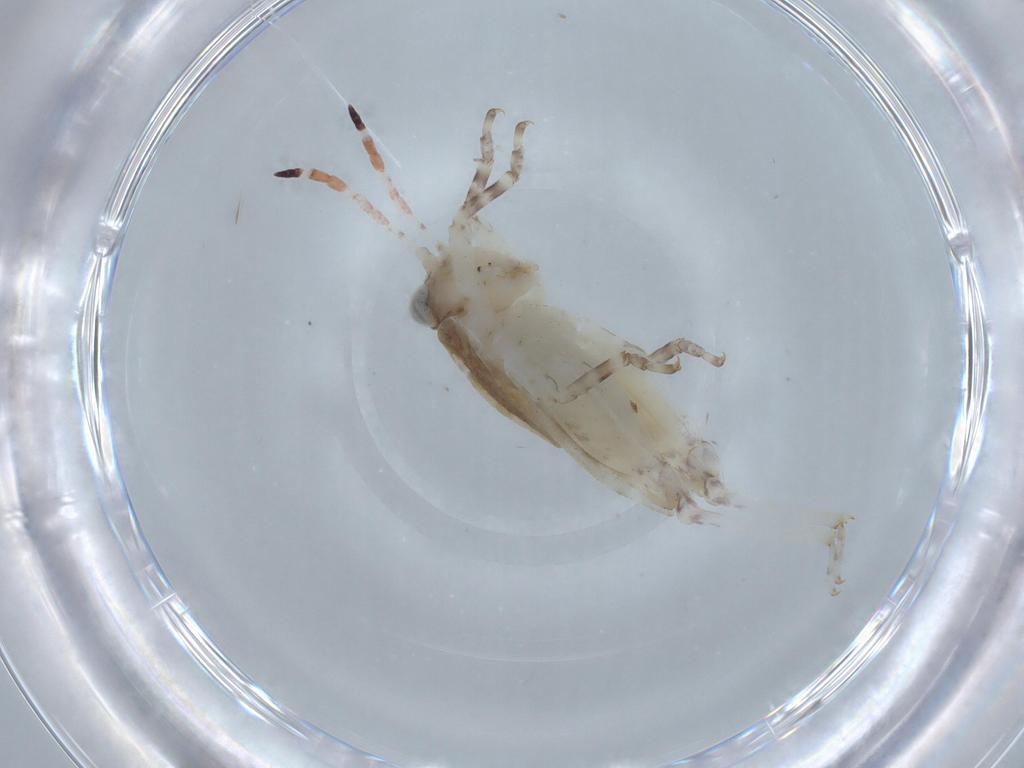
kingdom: Animalia
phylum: Arthropoda
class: Insecta
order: Orthoptera
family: Tetrigidae
